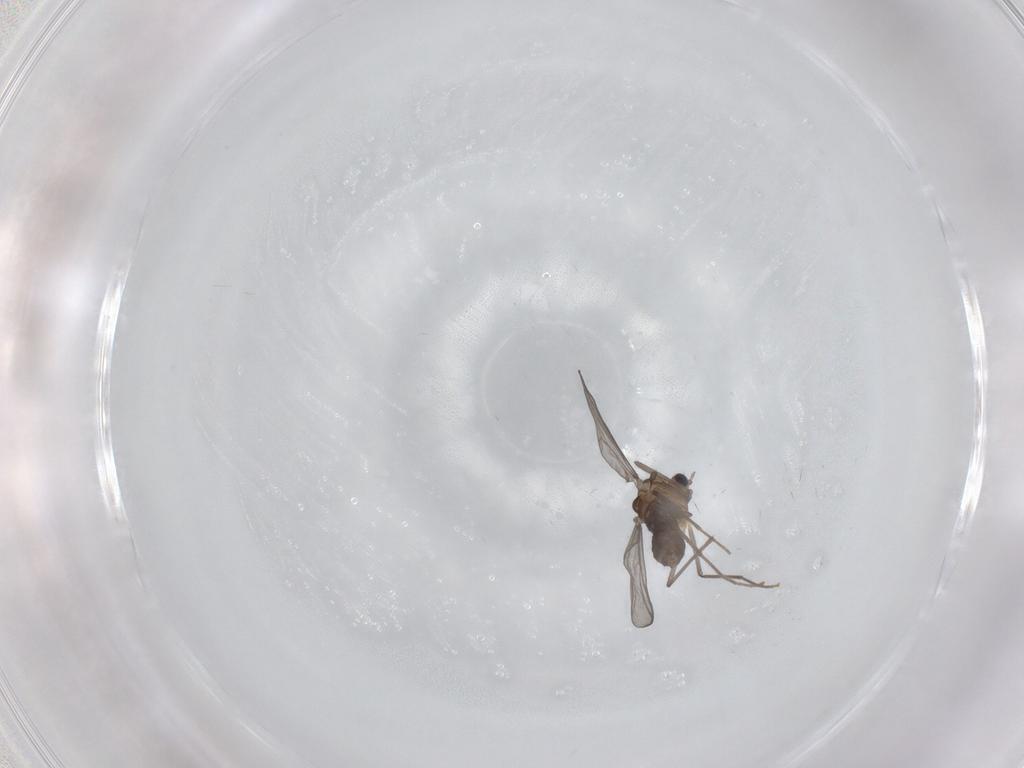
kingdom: Animalia
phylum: Arthropoda
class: Insecta
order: Diptera
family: Chironomidae
